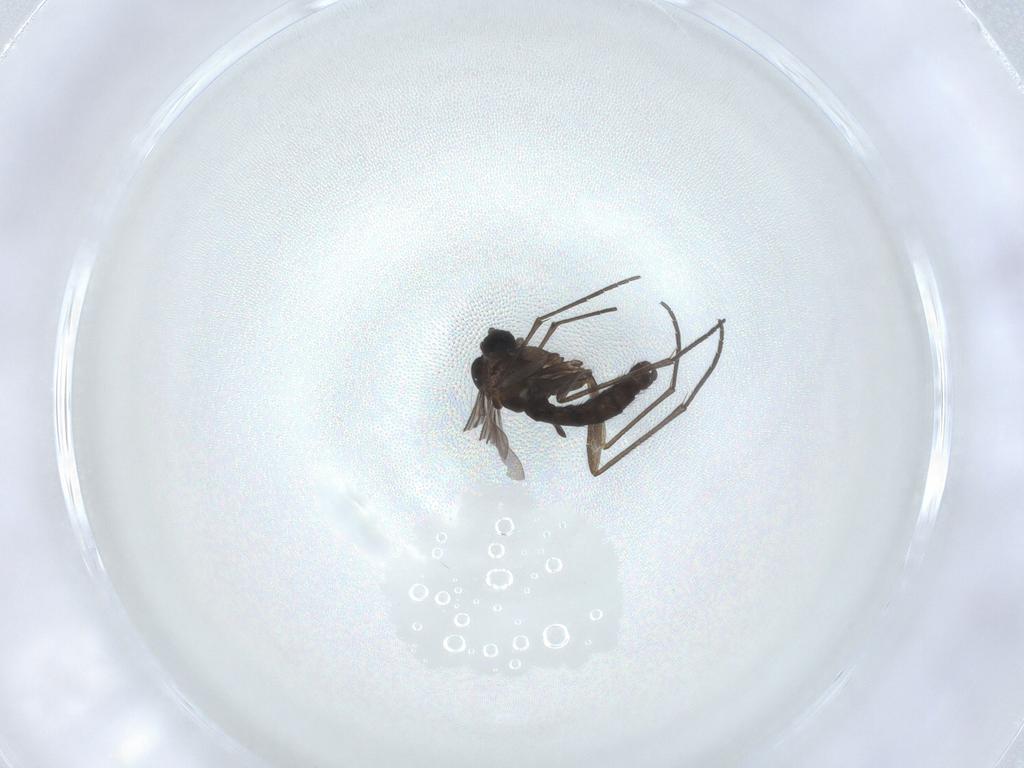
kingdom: Animalia
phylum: Arthropoda
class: Insecta
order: Diptera
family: Sciaridae
